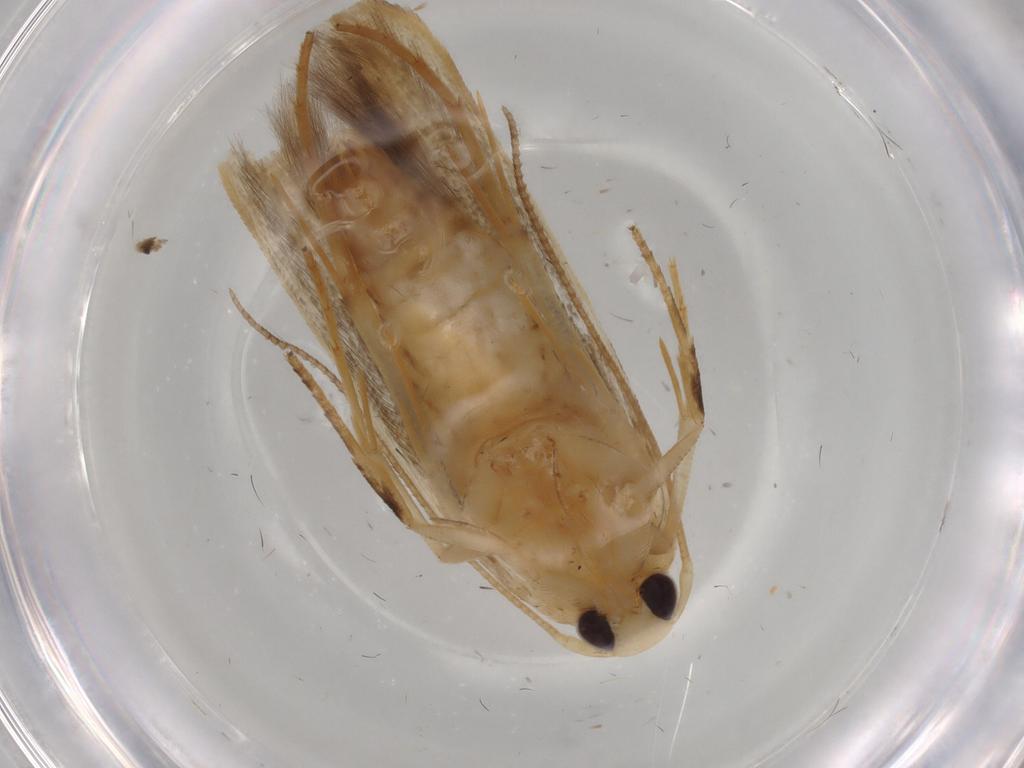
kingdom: Animalia
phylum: Arthropoda
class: Insecta
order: Lepidoptera
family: Cosmopterigidae
